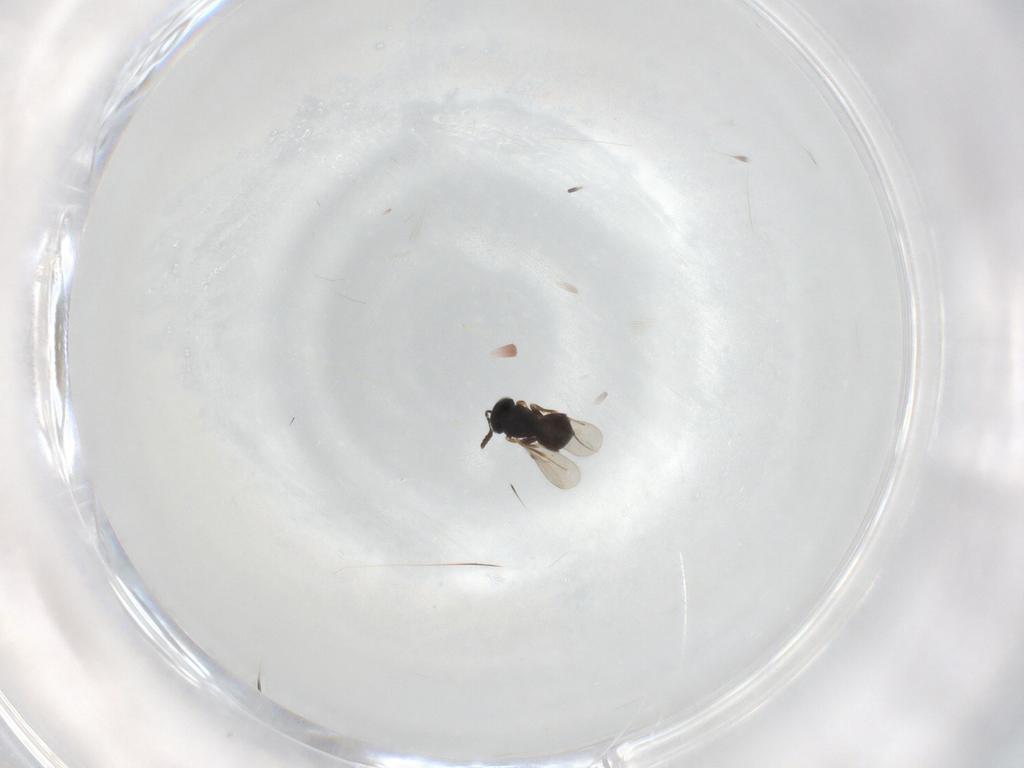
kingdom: Animalia
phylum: Arthropoda
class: Insecta
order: Hymenoptera
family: Scelionidae
